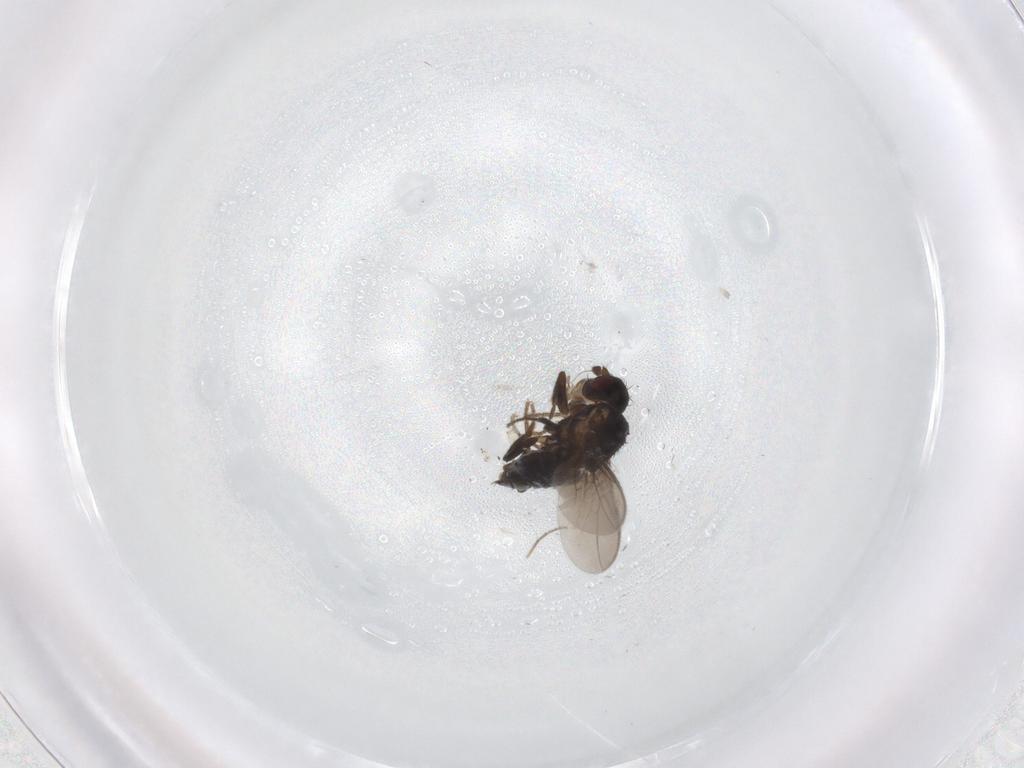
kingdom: Animalia
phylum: Arthropoda
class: Insecta
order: Diptera
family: Sphaeroceridae
